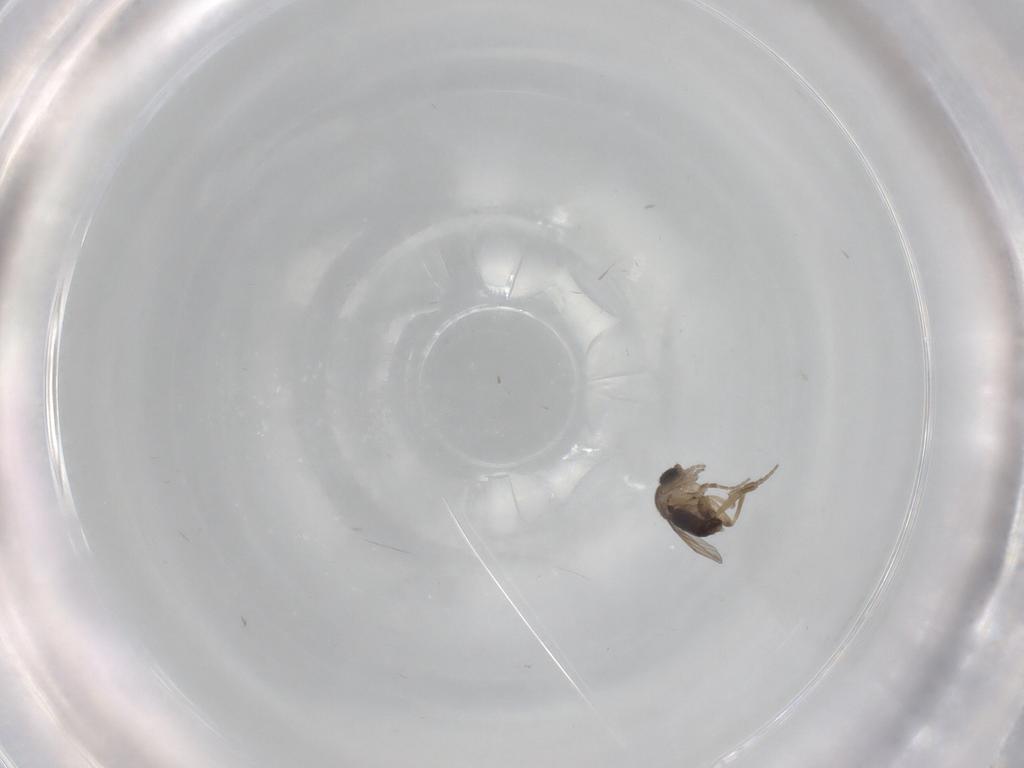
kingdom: Animalia
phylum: Arthropoda
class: Insecta
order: Diptera
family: Phoridae
